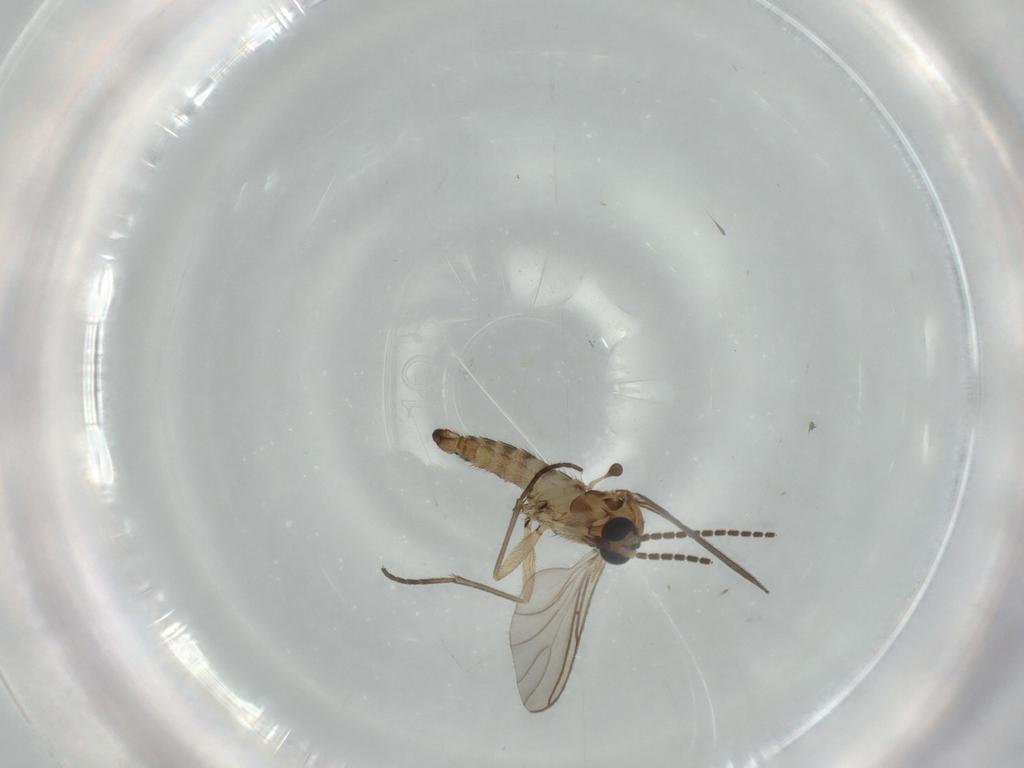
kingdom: Animalia
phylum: Arthropoda
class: Insecta
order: Diptera
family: Sciaridae
